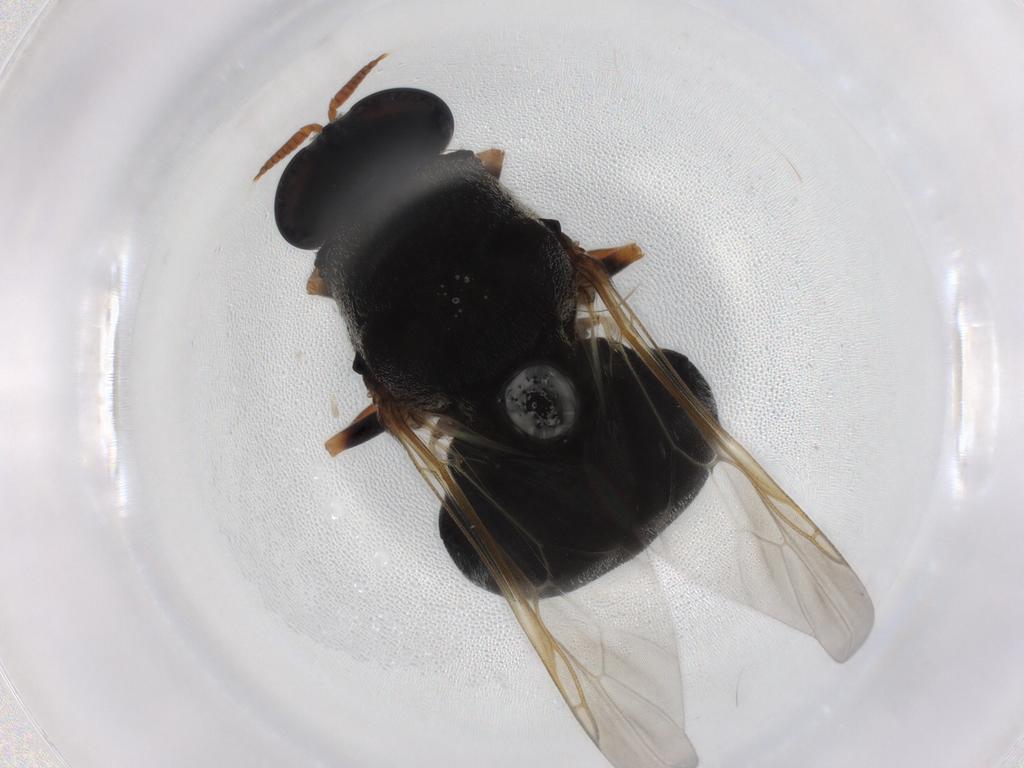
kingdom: Animalia
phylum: Arthropoda
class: Insecta
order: Diptera
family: Stratiomyidae
